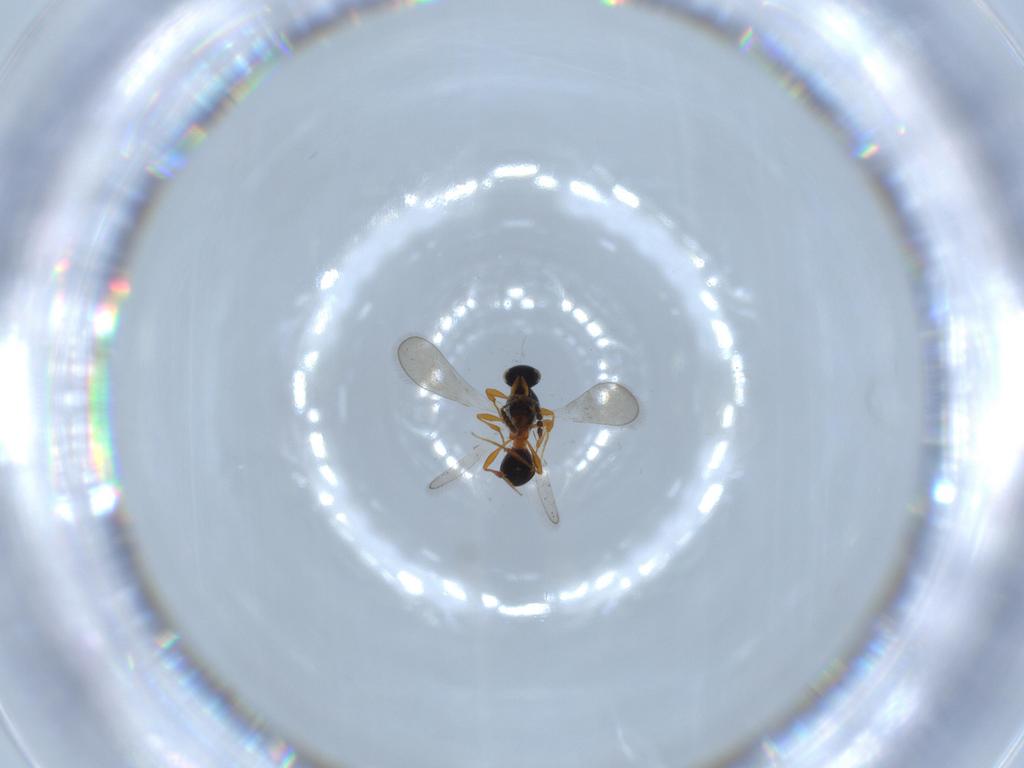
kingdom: Animalia
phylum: Arthropoda
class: Insecta
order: Hymenoptera
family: Platygastridae
